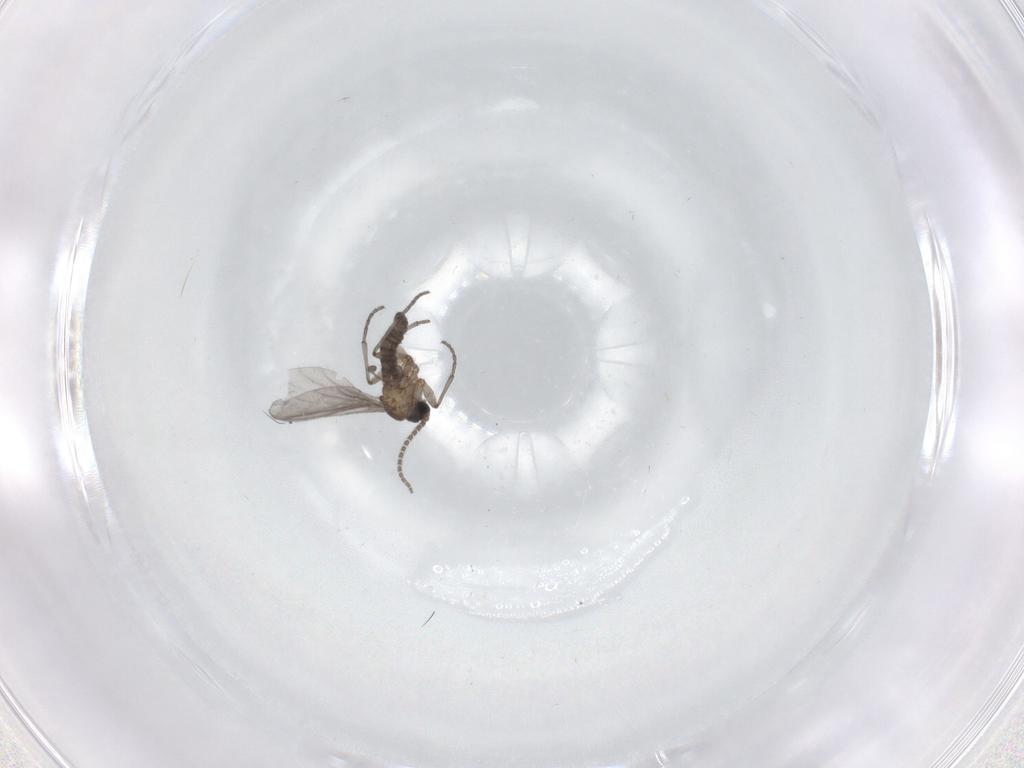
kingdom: Animalia
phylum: Arthropoda
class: Insecta
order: Diptera
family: Sciaridae
